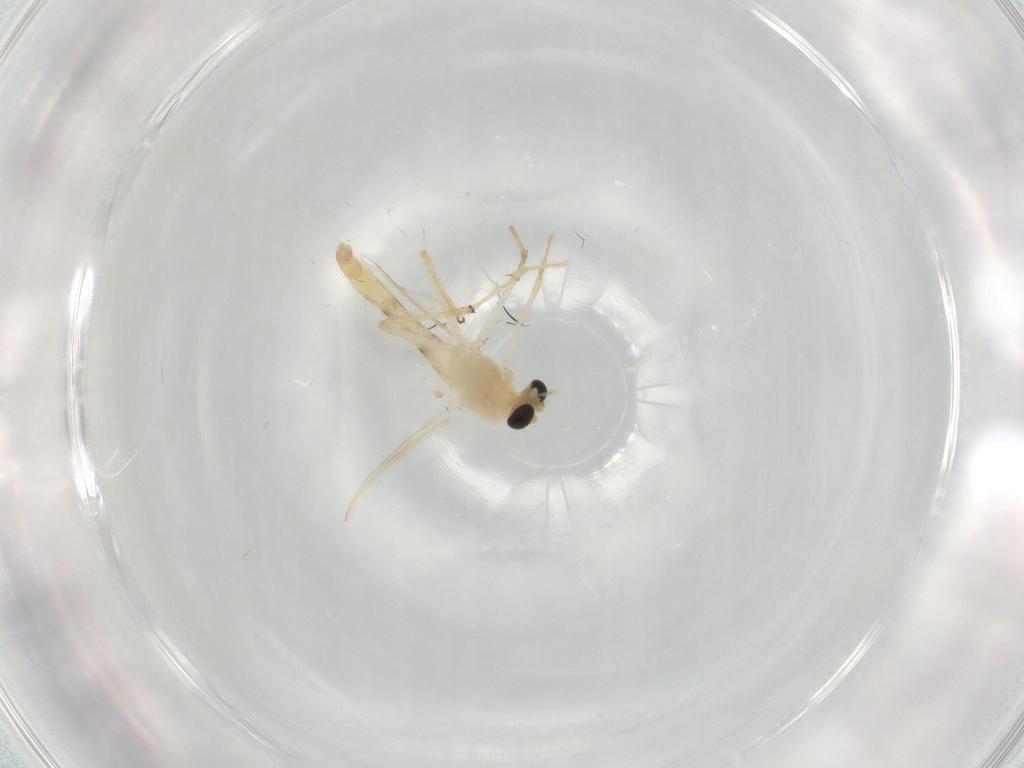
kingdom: Animalia
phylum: Arthropoda
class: Insecta
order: Diptera
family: Chironomidae
